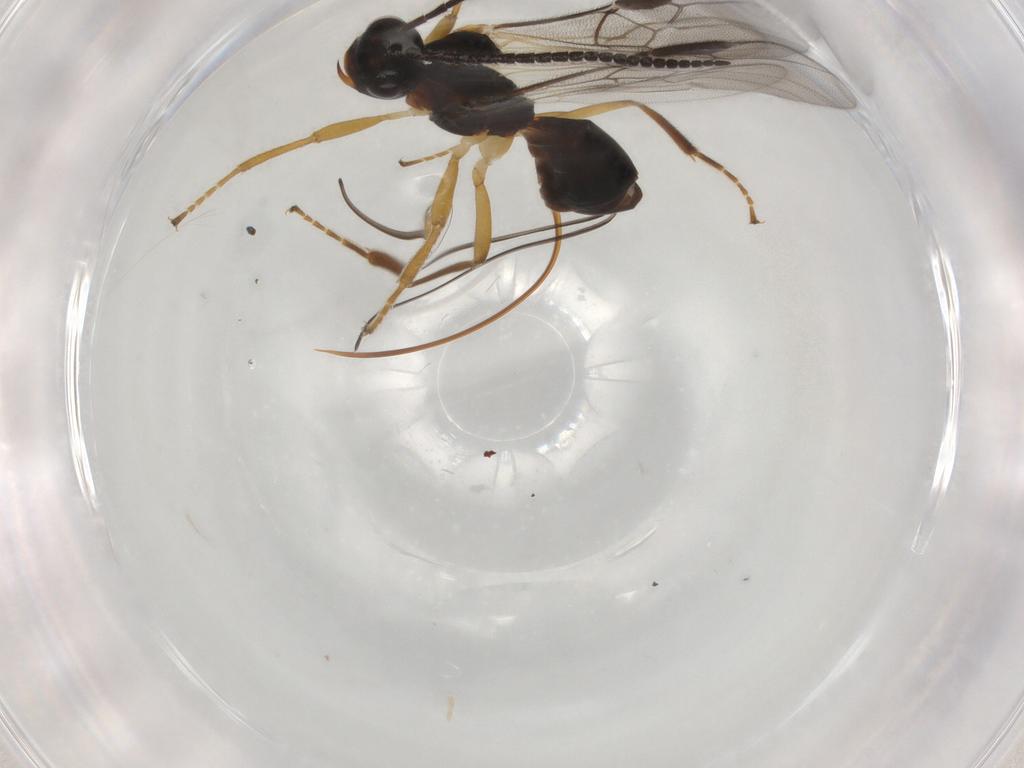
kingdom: Animalia
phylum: Arthropoda
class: Insecta
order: Hymenoptera
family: Braconidae
